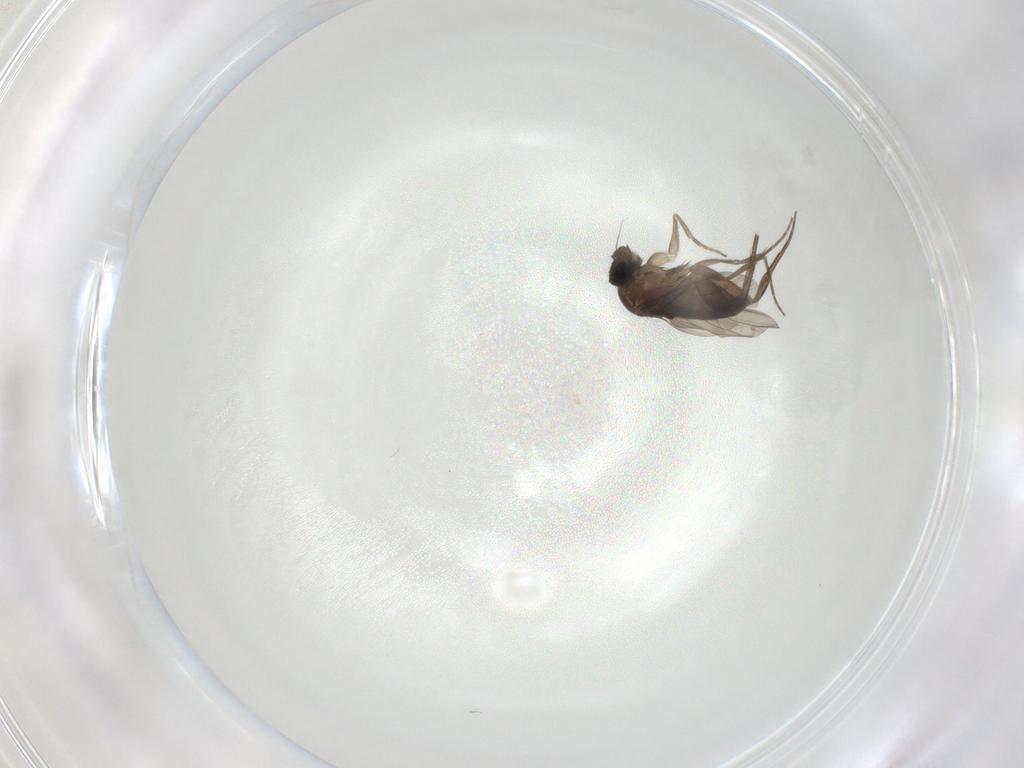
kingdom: Animalia
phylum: Arthropoda
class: Insecta
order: Diptera
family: Phoridae
